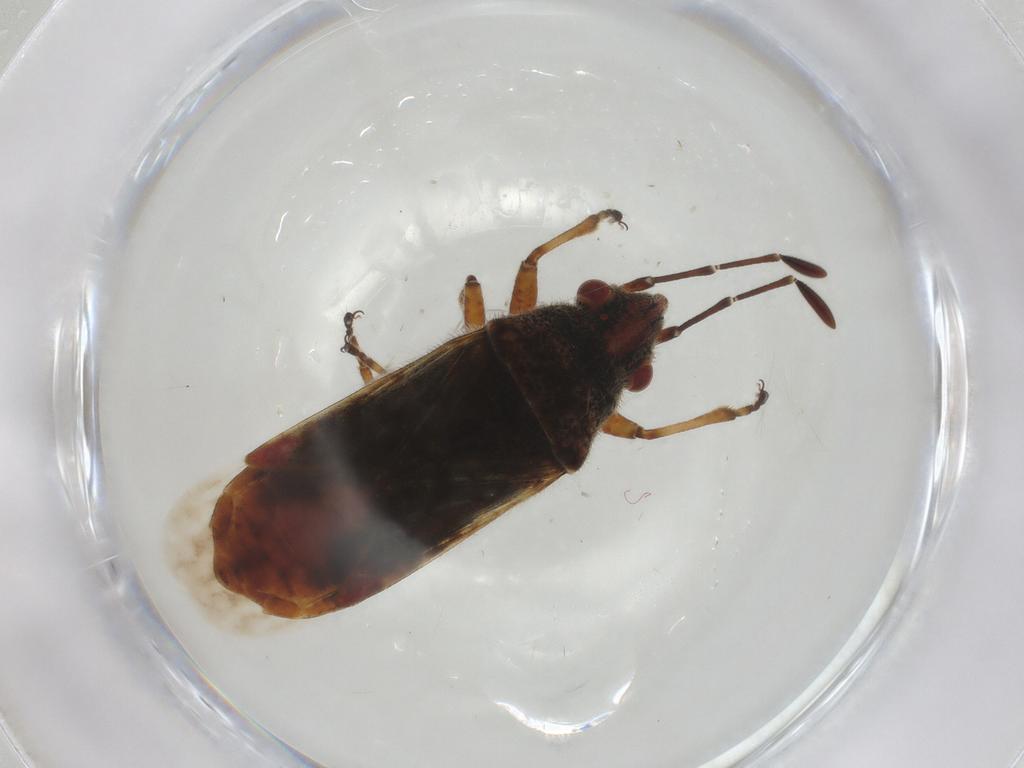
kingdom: Animalia
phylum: Arthropoda
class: Insecta
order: Hemiptera
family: Lygaeidae
